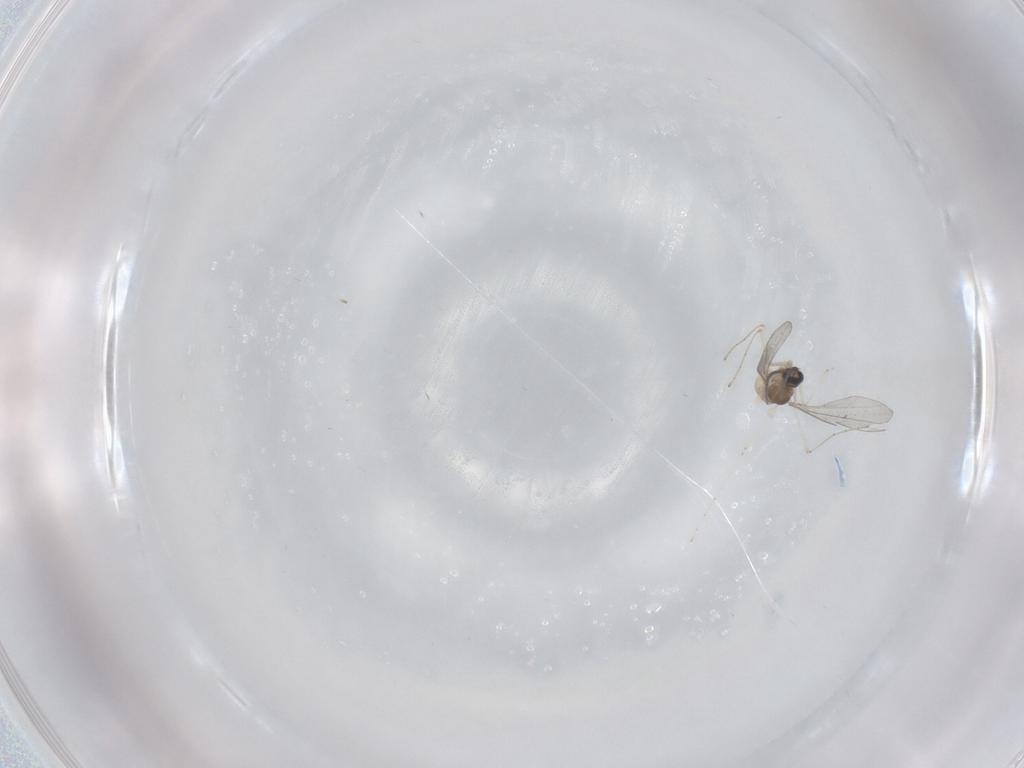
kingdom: Animalia
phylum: Arthropoda
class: Insecta
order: Diptera
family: Cecidomyiidae
